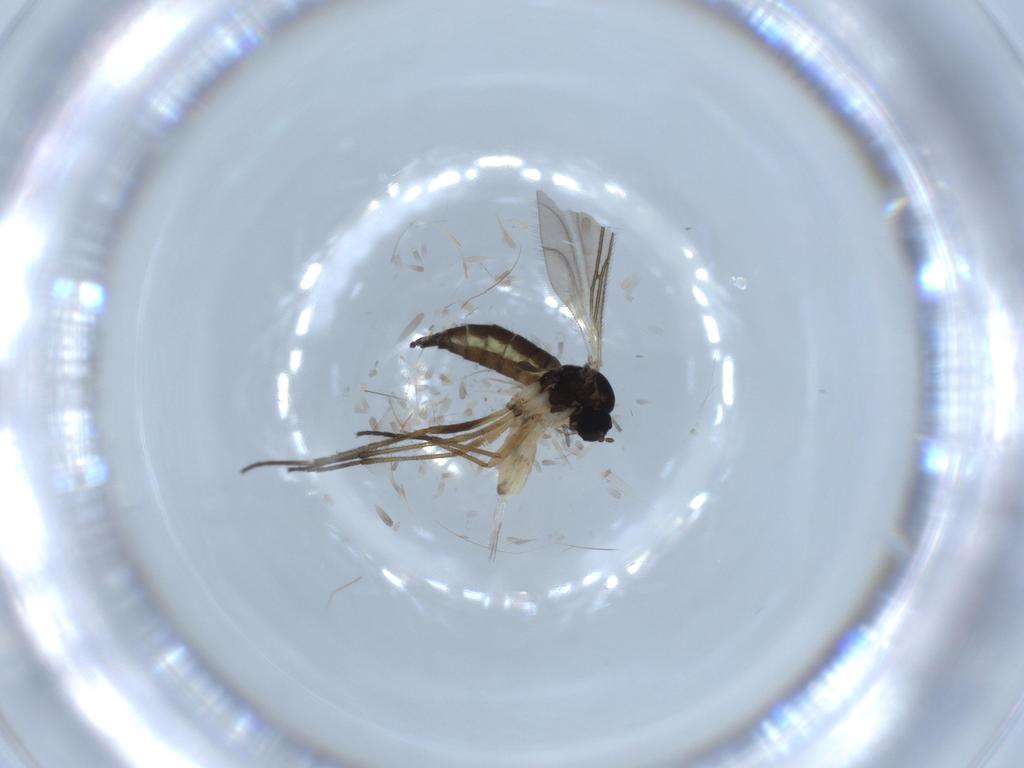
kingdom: Animalia
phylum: Arthropoda
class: Insecta
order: Diptera
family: Sciaridae
